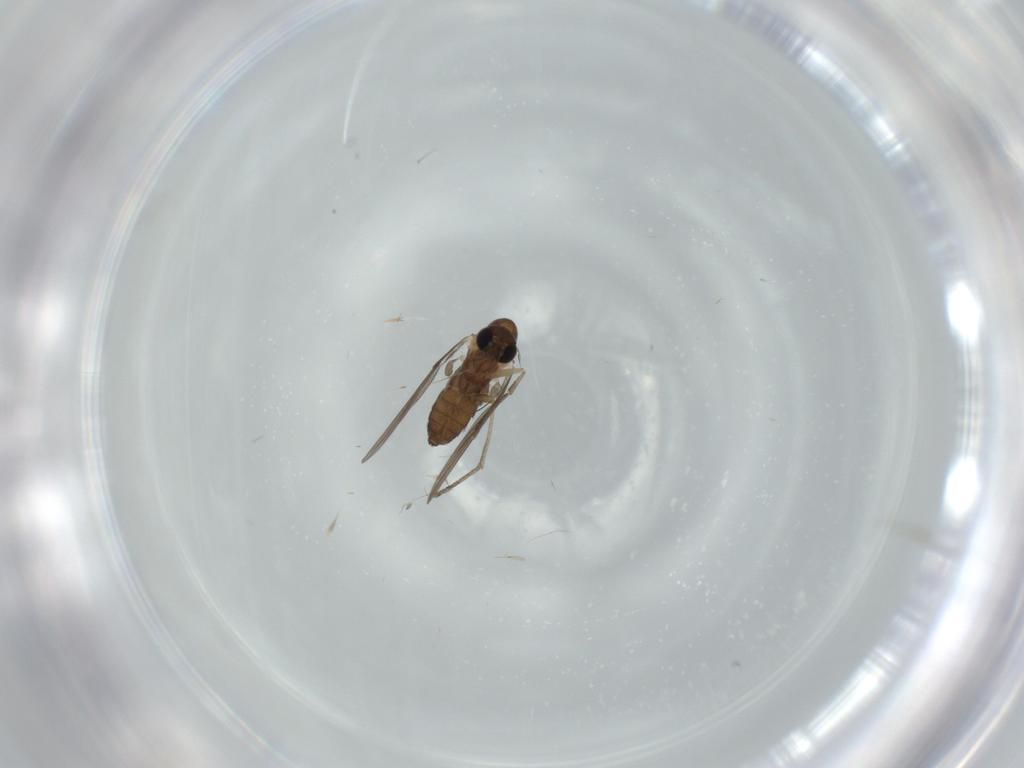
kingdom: Animalia
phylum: Arthropoda
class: Insecta
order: Diptera
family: Psychodidae
